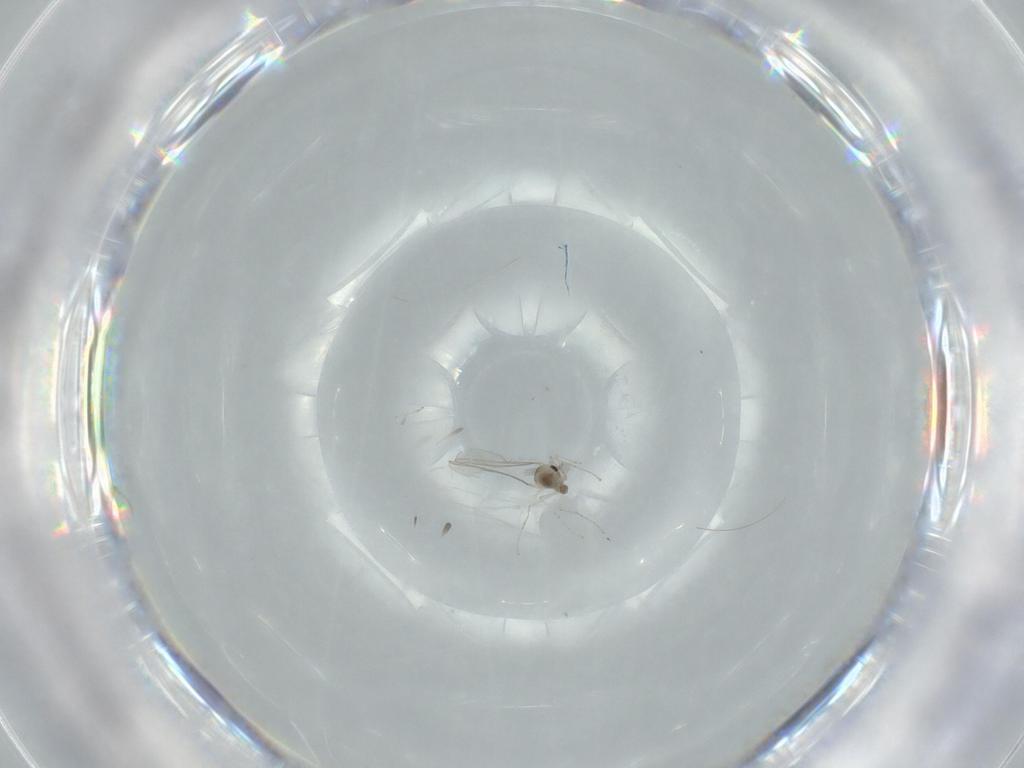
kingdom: Animalia
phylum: Arthropoda
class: Insecta
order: Diptera
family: Cecidomyiidae
